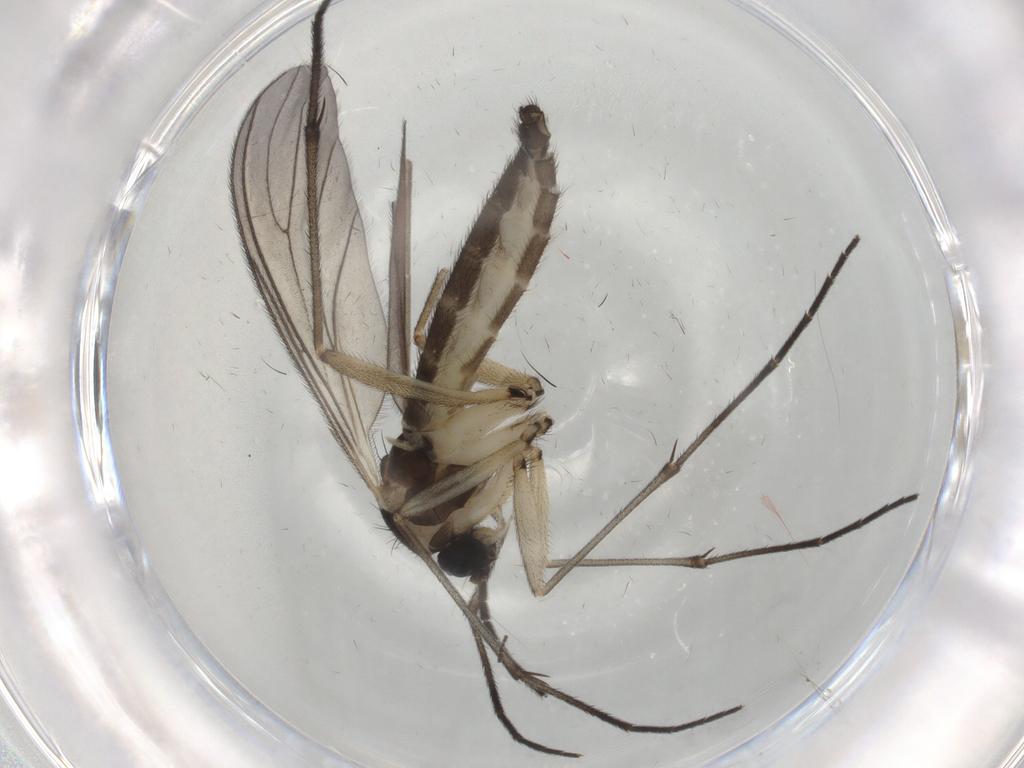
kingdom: Animalia
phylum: Arthropoda
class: Insecta
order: Diptera
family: Sciaridae
